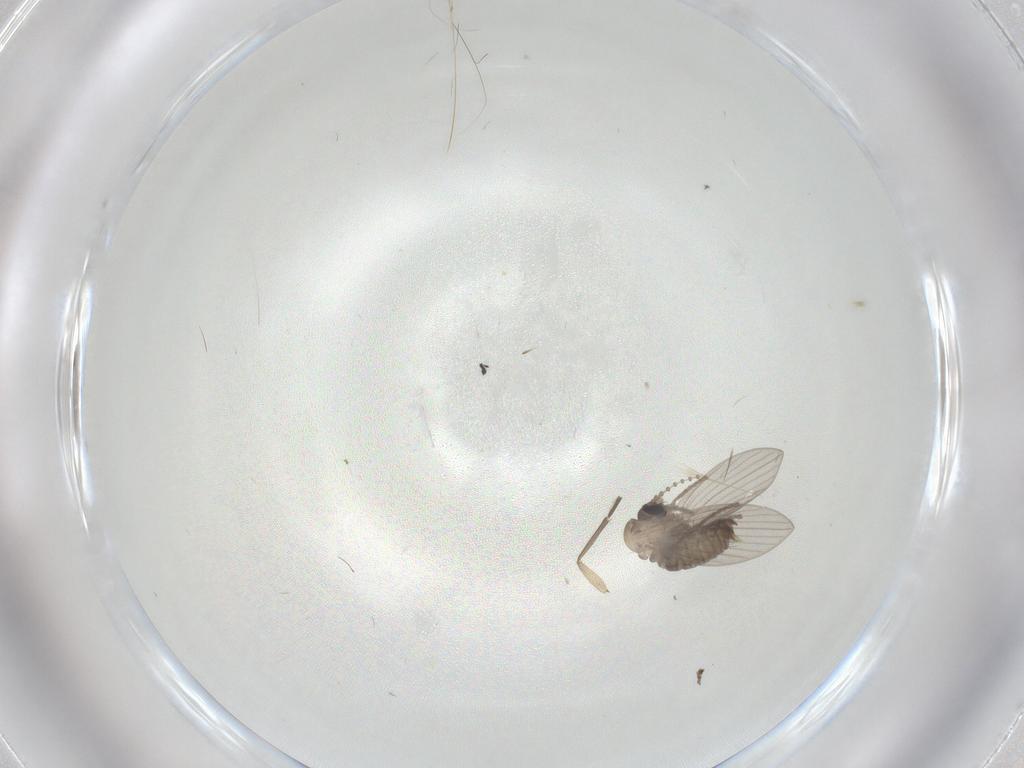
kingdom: Animalia
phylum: Arthropoda
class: Insecta
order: Diptera
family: Psychodidae
